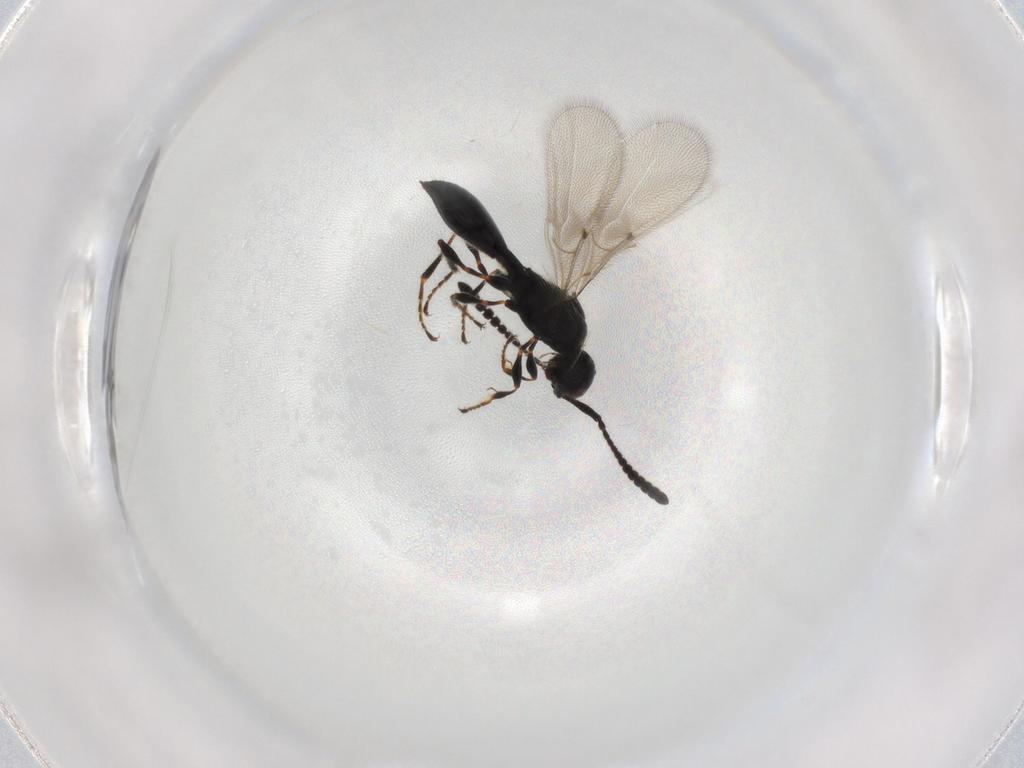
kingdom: Animalia
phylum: Arthropoda
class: Insecta
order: Hymenoptera
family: Diapriidae
